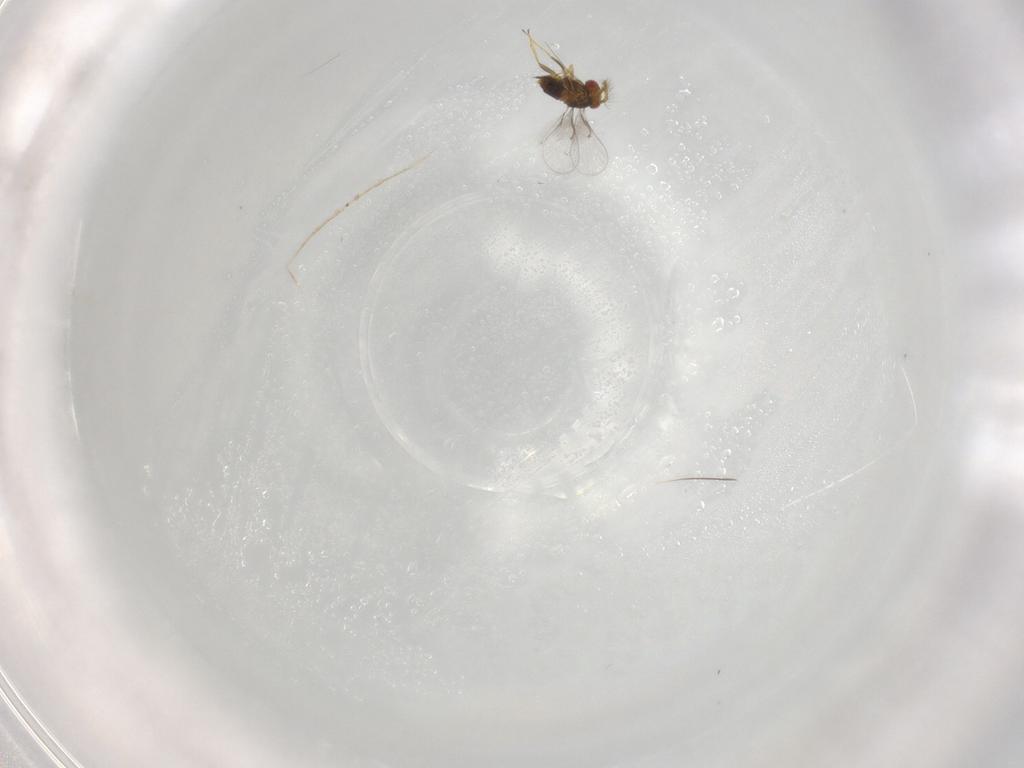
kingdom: Animalia
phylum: Arthropoda
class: Insecta
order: Hymenoptera
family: Trichogrammatidae
